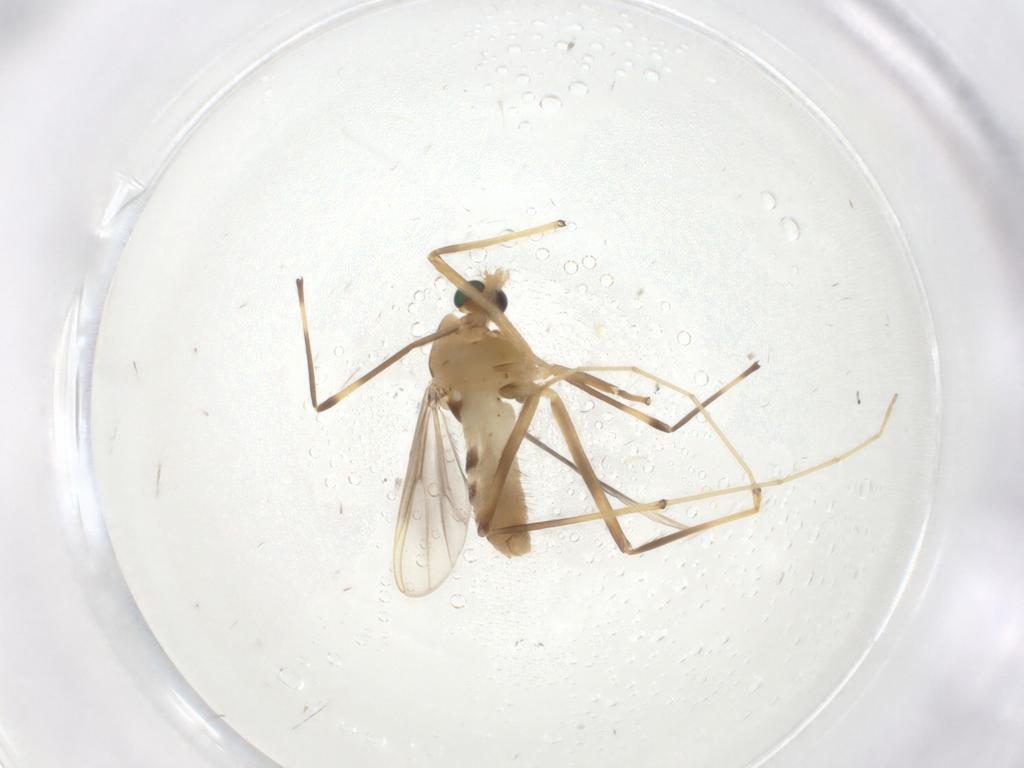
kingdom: Animalia
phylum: Arthropoda
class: Insecta
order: Diptera
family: Chironomidae
